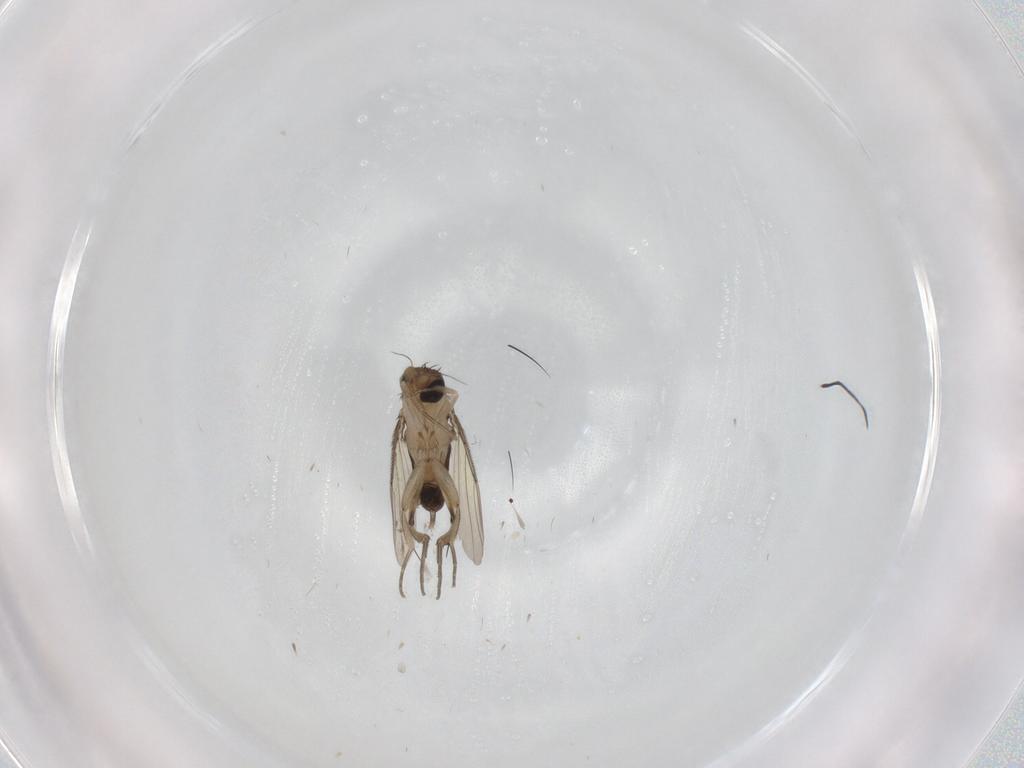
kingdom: Animalia
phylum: Arthropoda
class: Insecta
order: Diptera
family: Phoridae
